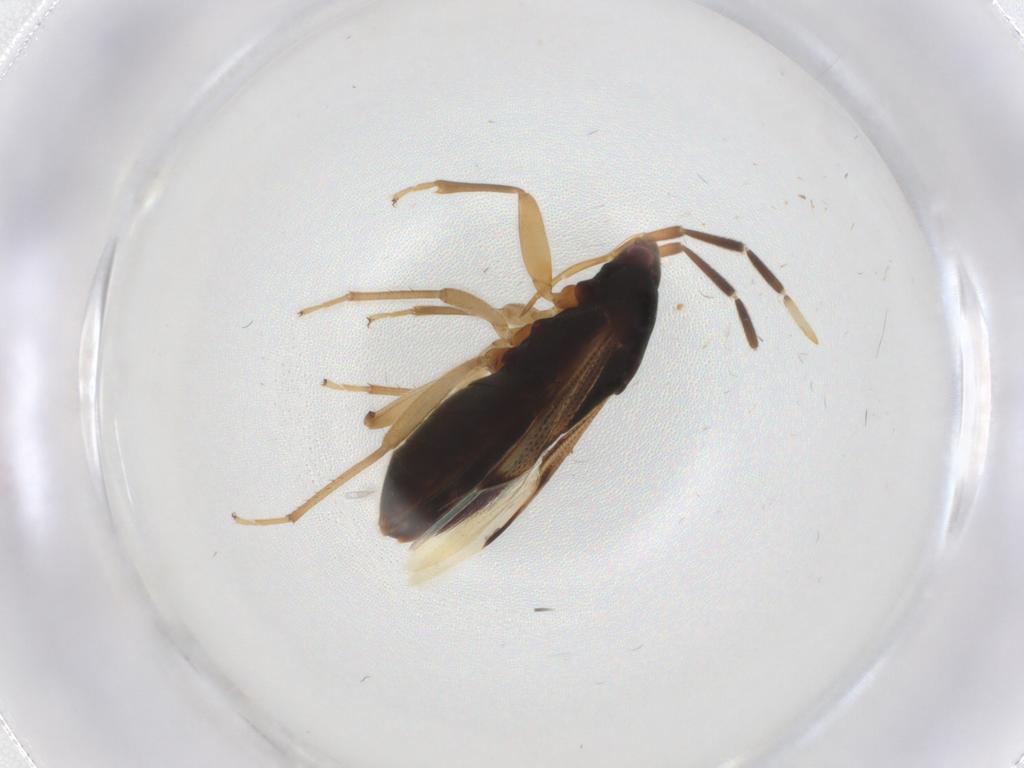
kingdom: Animalia
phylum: Arthropoda
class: Insecta
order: Hemiptera
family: Rhyparochromidae
